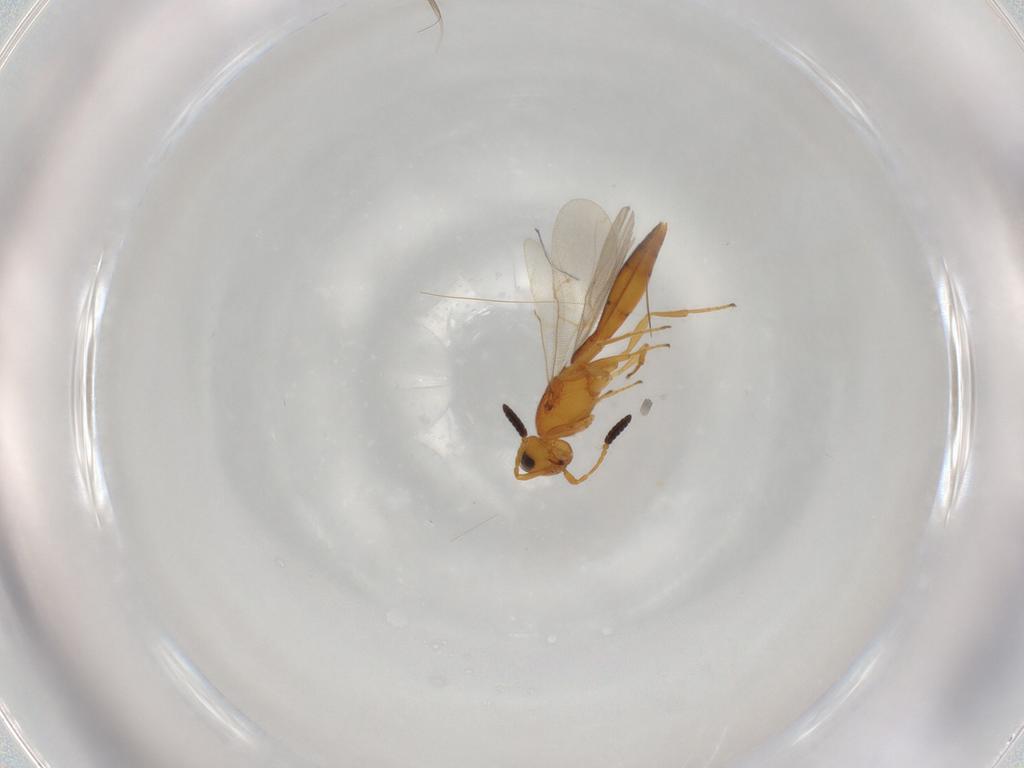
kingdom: Animalia
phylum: Arthropoda
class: Insecta
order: Hymenoptera
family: Scelionidae
